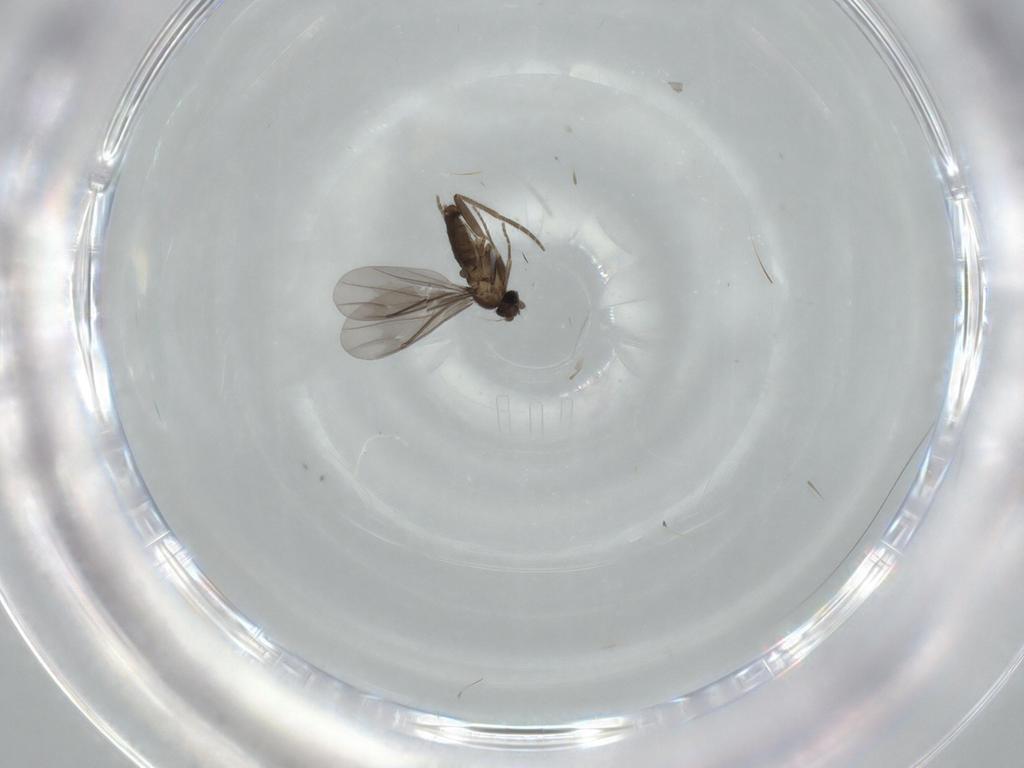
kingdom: Animalia
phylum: Arthropoda
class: Insecta
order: Diptera
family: Phoridae
